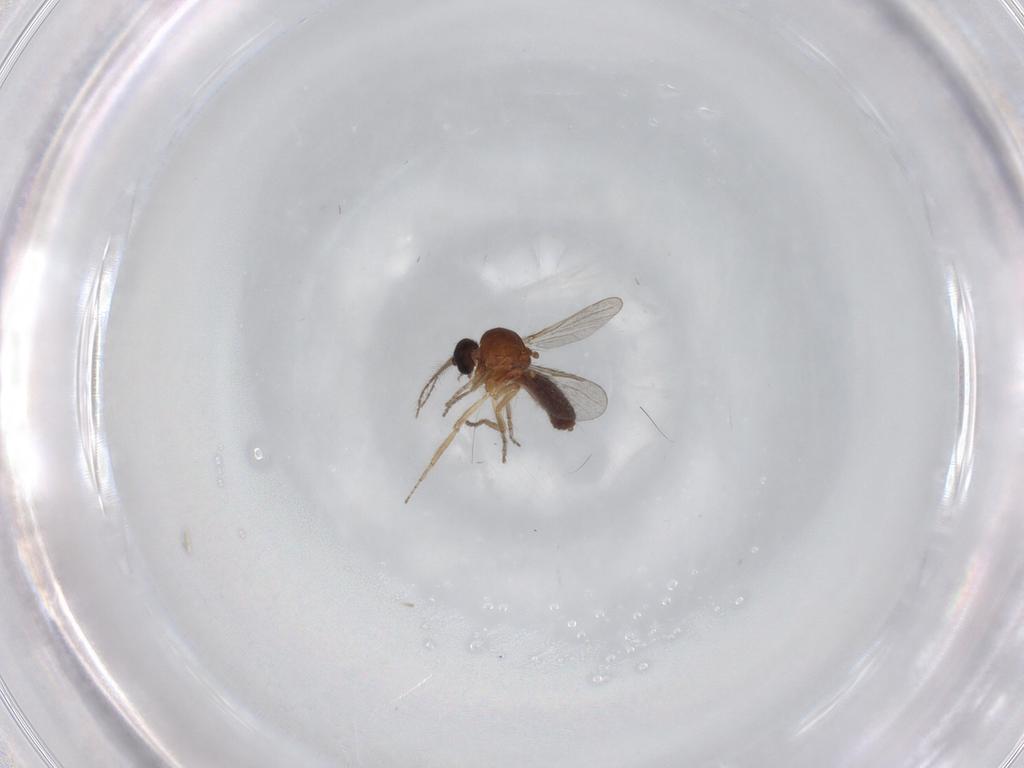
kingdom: Animalia
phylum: Arthropoda
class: Insecta
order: Diptera
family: Ceratopogonidae
